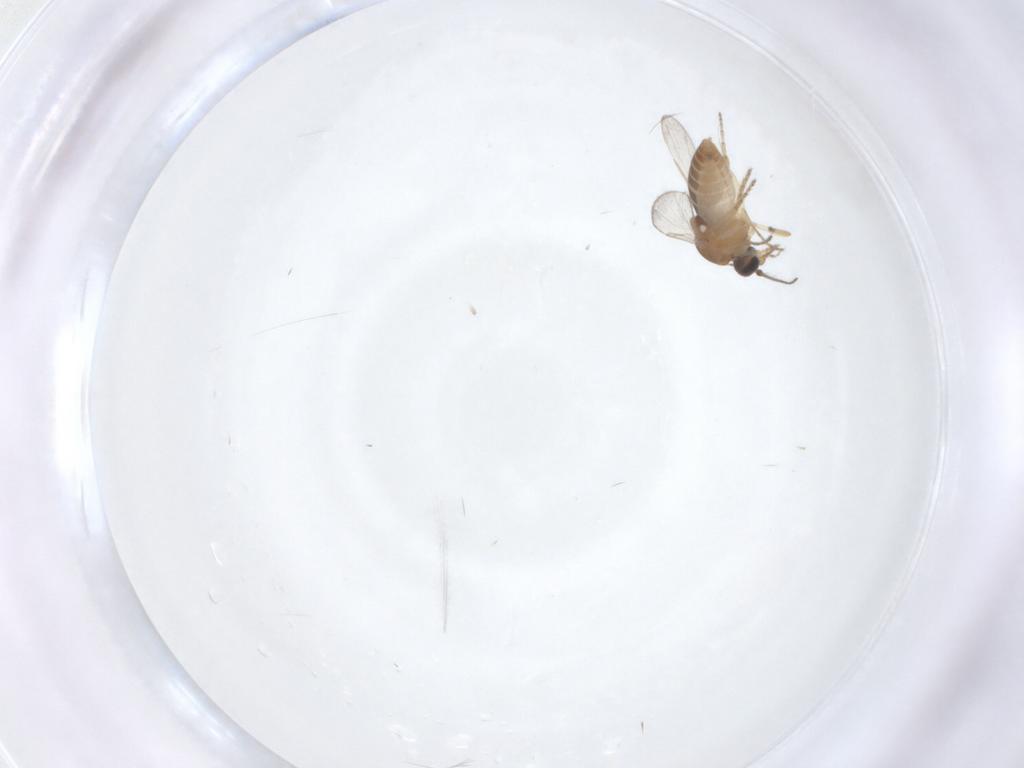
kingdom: Animalia
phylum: Arthropoda
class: Insecta
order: Diptera
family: Ceratopogonidae
